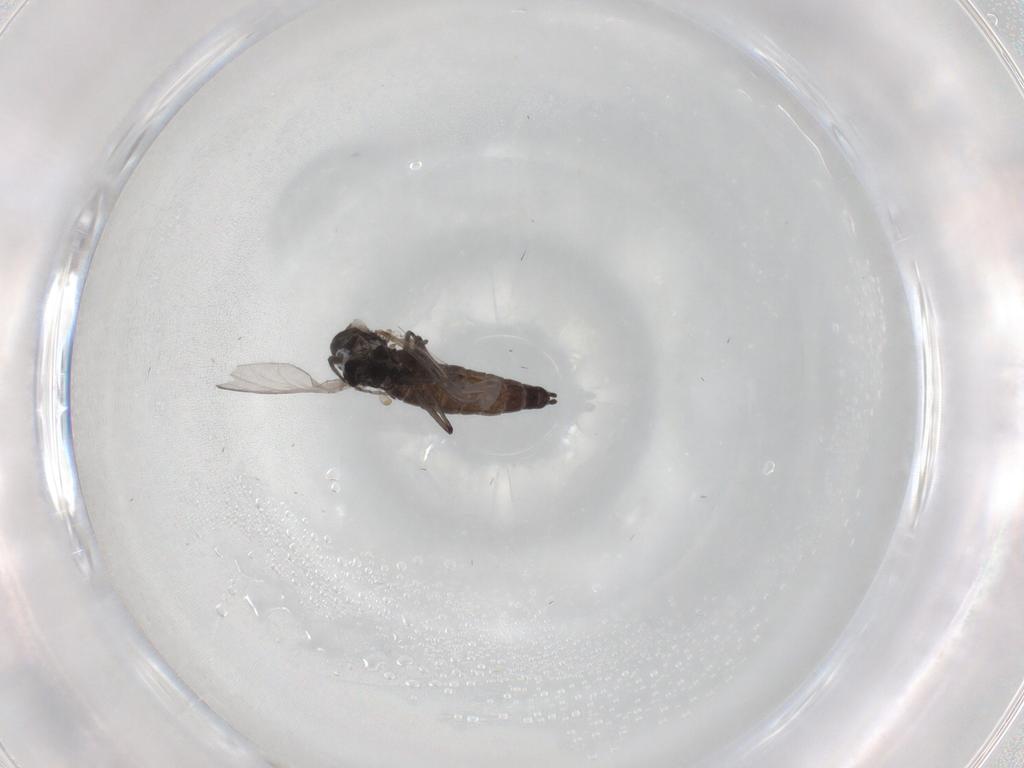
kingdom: Animalia
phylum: Arthropoda
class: Insecta
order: Diptera
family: Chironomidae
